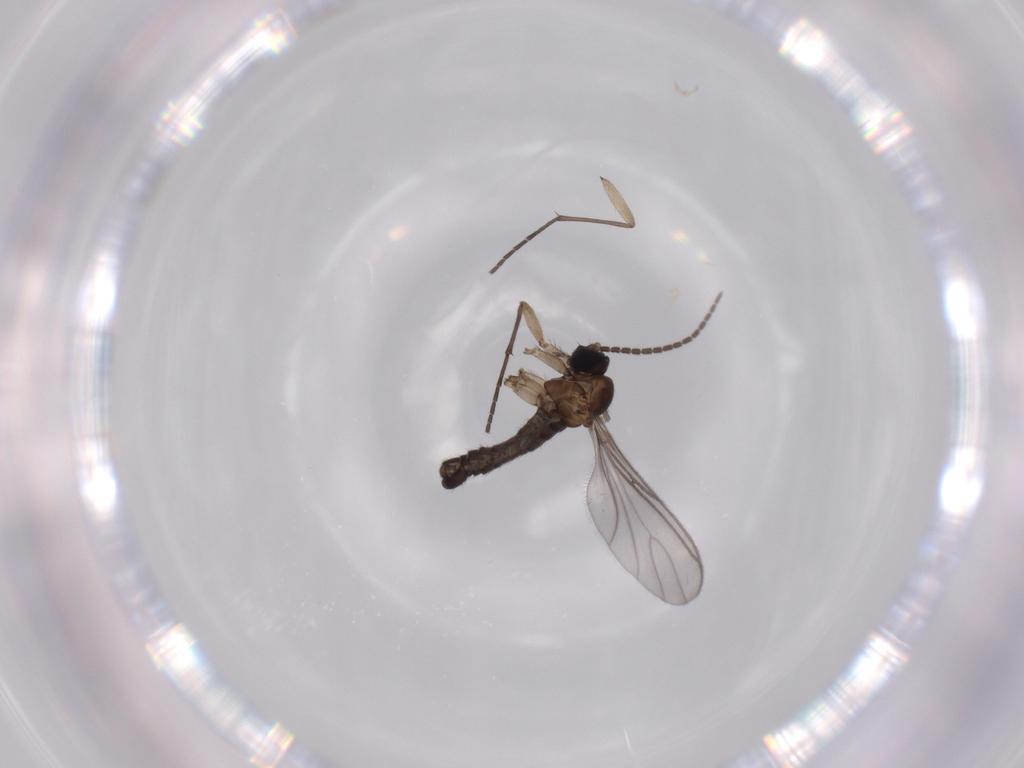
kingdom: Animalia
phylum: Arthropoda
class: Insecta
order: Diptera
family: Sciaridae
